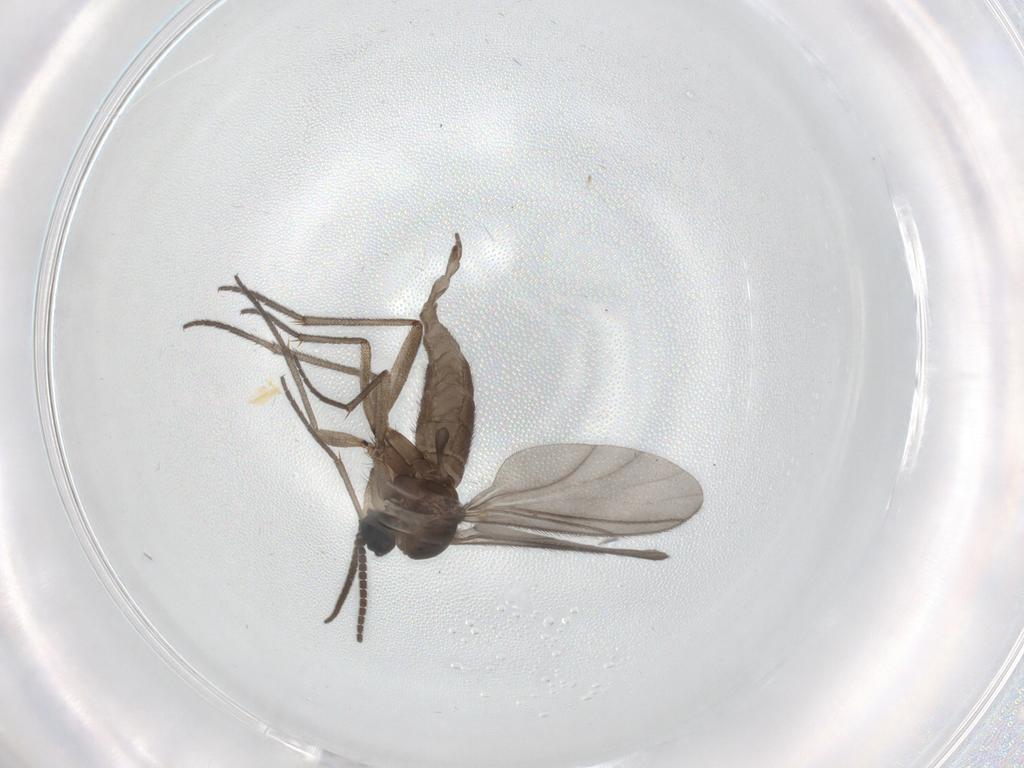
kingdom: Animalia
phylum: Arthropoda
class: Insecta
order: Diptera
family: Sciaridae
